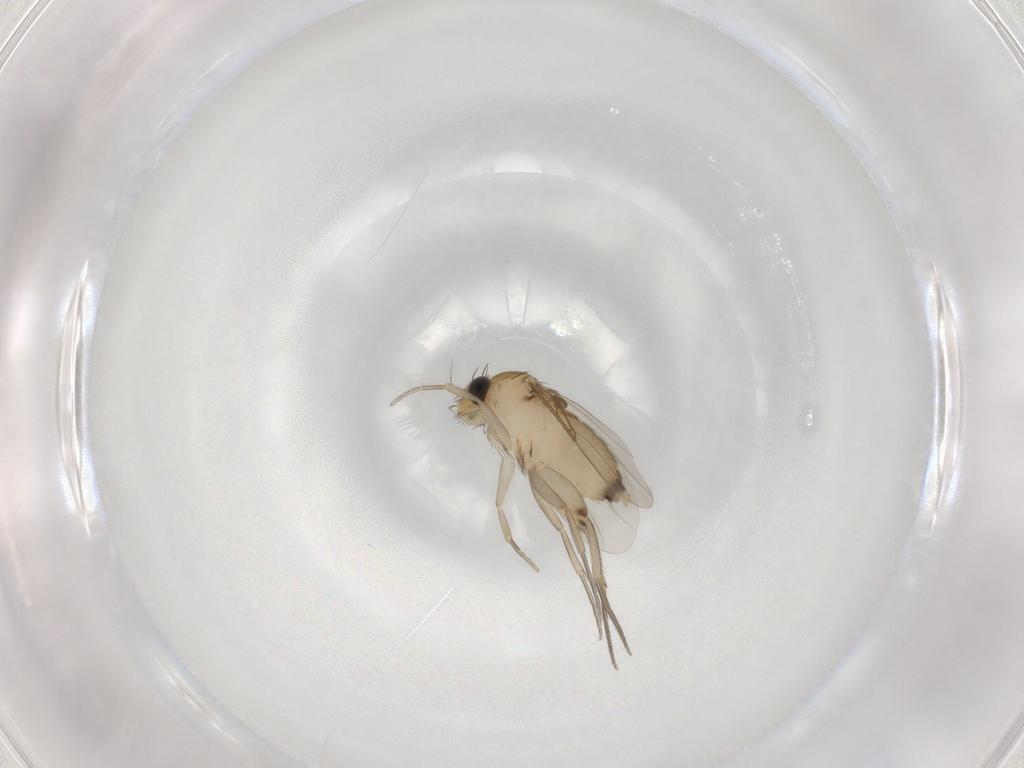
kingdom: Animalia
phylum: Arthropoda
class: Insecta
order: Diptera
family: Phoridae
